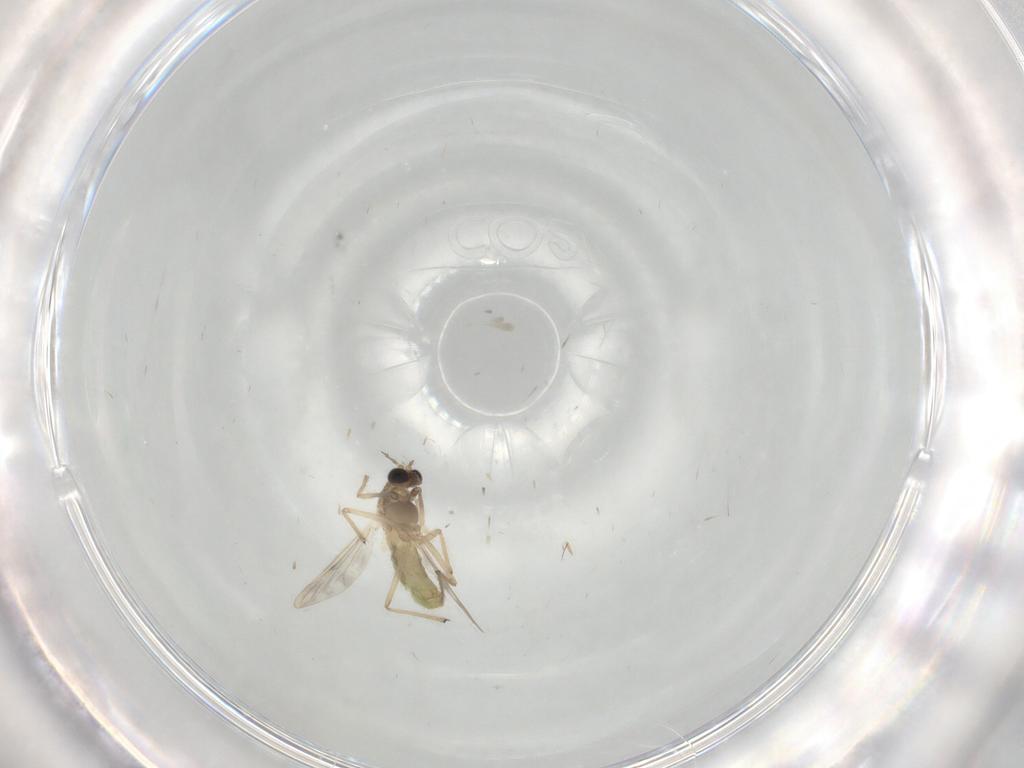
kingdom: Animalia
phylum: Arthropoda
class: Insecta
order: Diptera
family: Chironomidae
